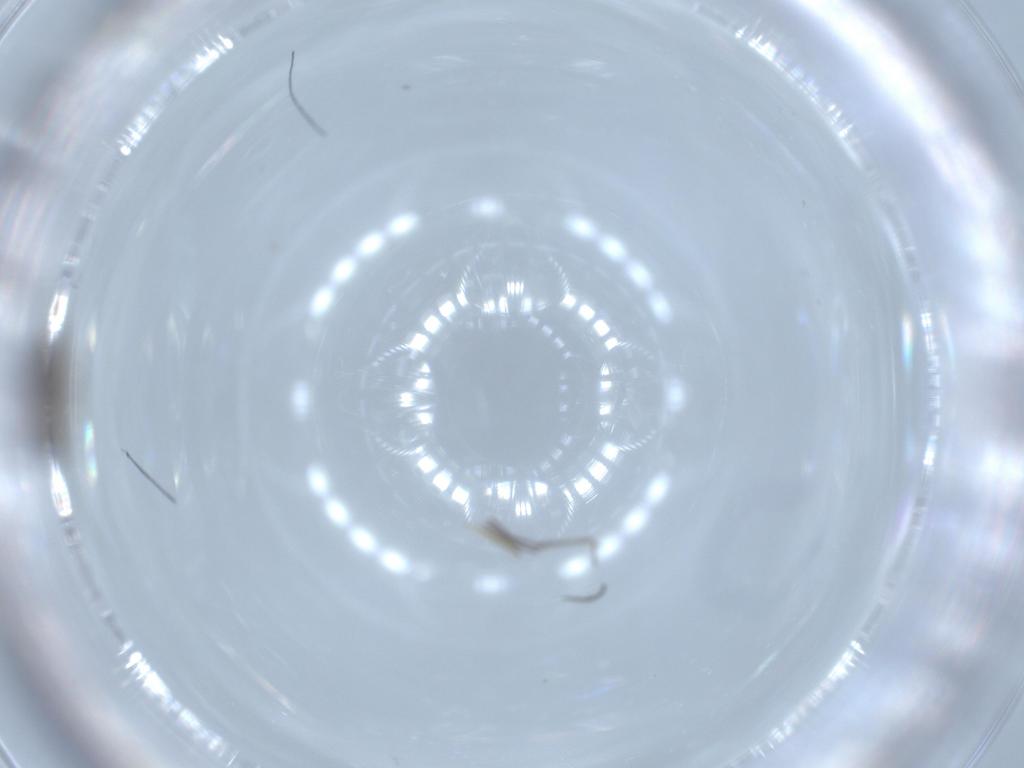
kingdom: Animalia
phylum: Arthropoda
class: Insecta
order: Diptera
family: Sciaridae
